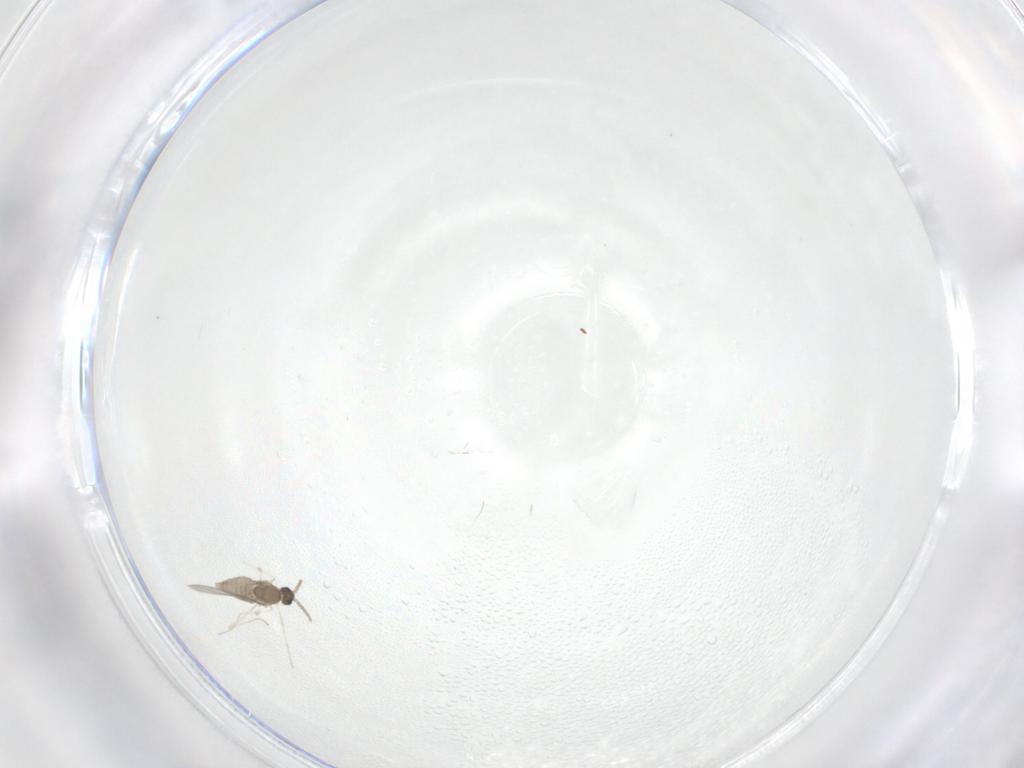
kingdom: Animalia
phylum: Arthropoda
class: Insecta
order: Diptera
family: Cecidomyiidae
